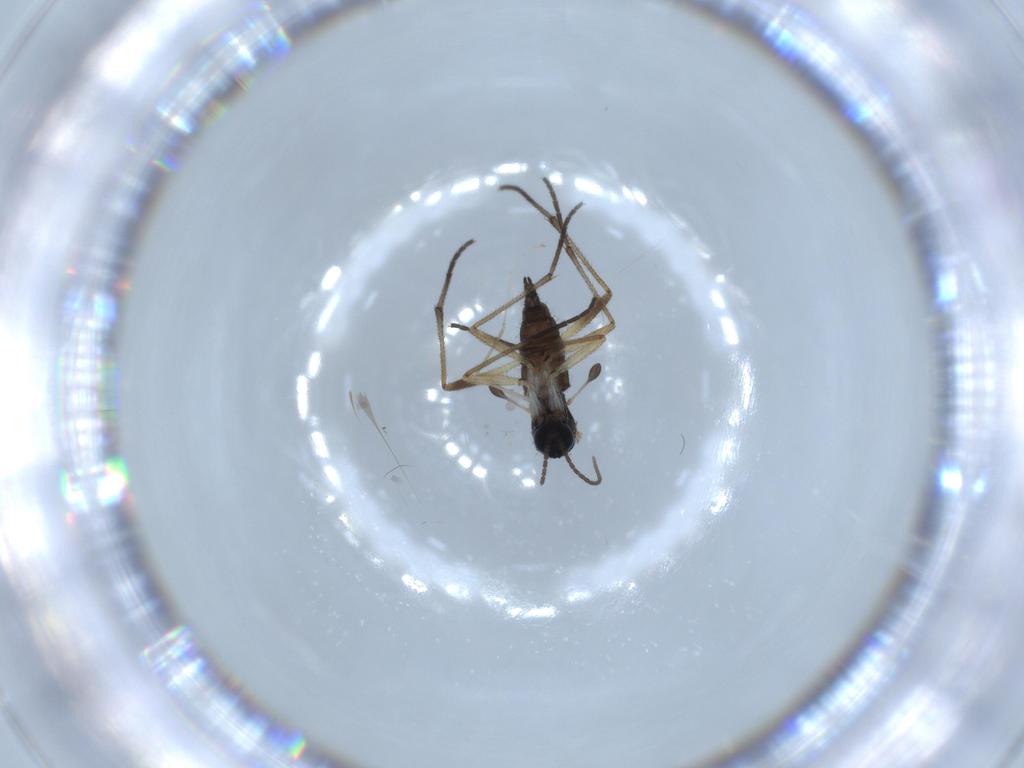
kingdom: Animalia
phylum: Arthropoda
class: Insecta
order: Diptera
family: Sciaridae
